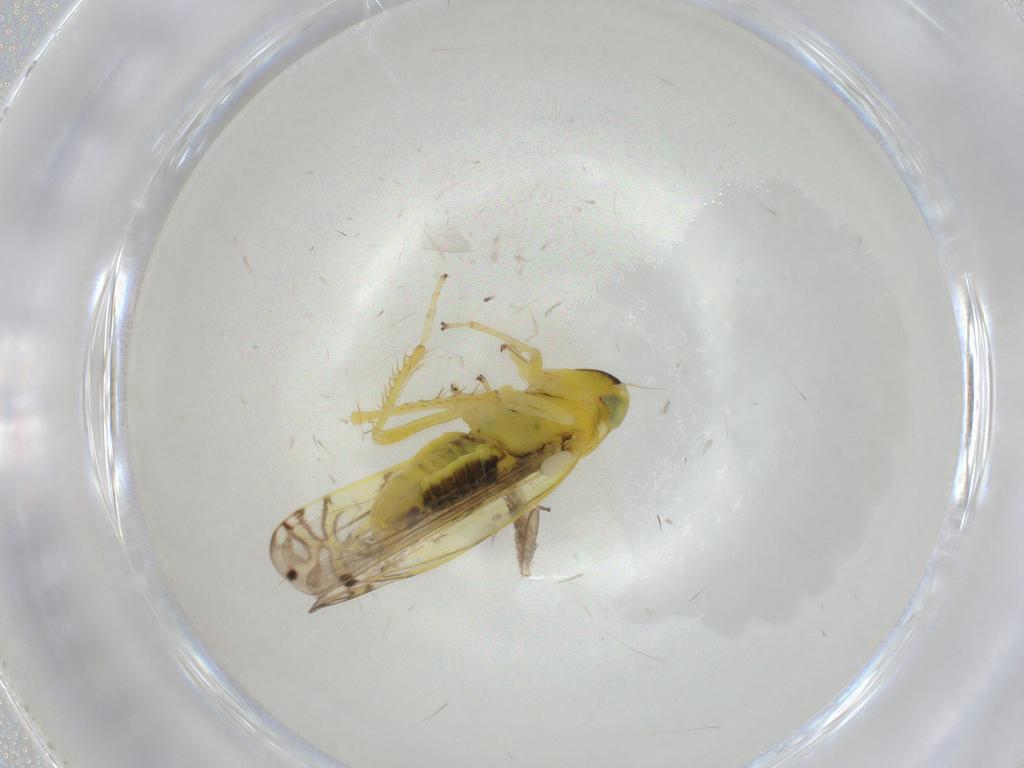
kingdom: Animalia
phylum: Arthropoda
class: Insecta
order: Hemiptera
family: Cicadellidae
